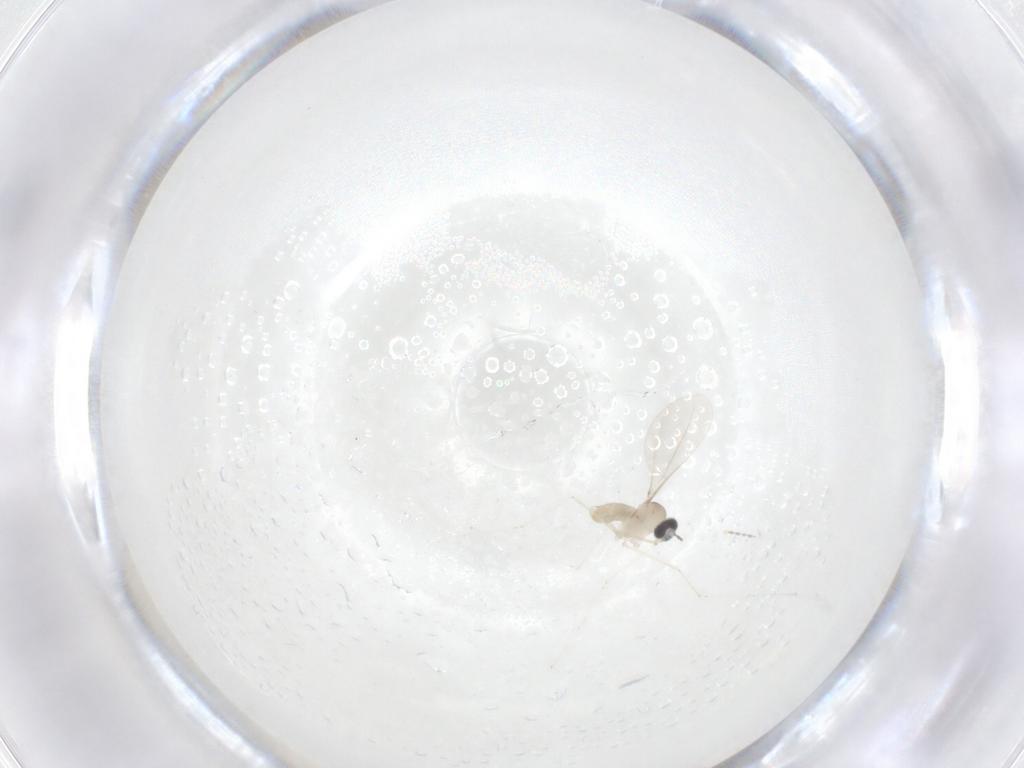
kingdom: Animalia
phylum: Arthropoda
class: Insecta
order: Diptera
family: Cecidomyiidae
